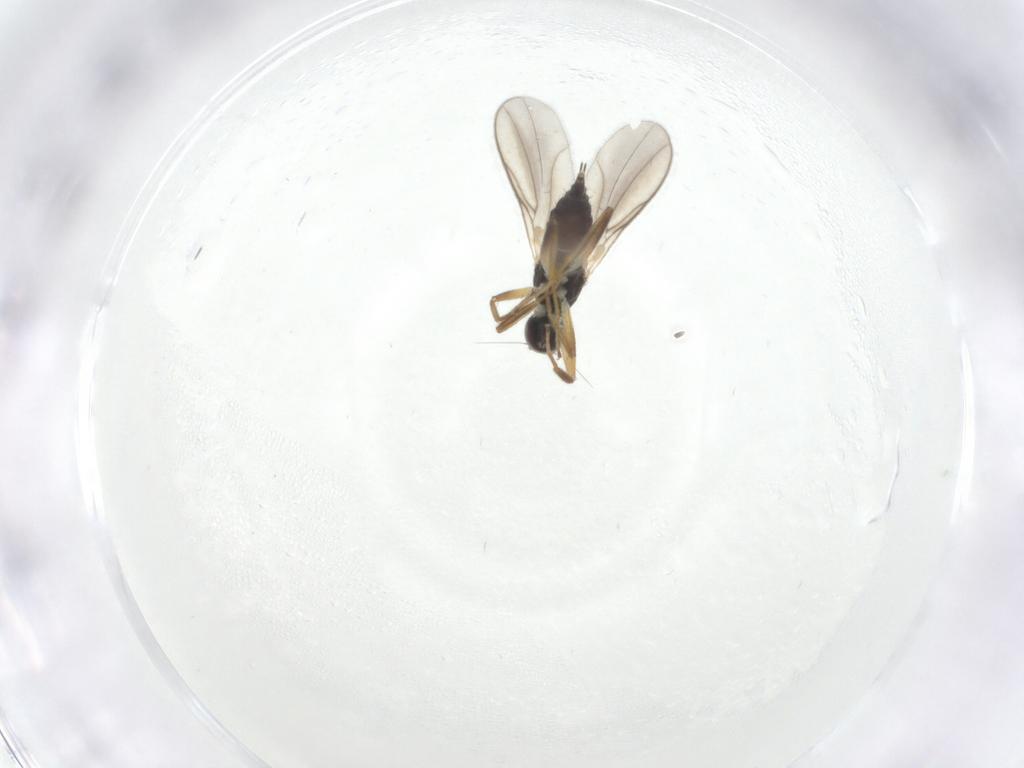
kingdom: Animalia
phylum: Arthropoda
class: Insecta
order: Diptera
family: Hybotidae
